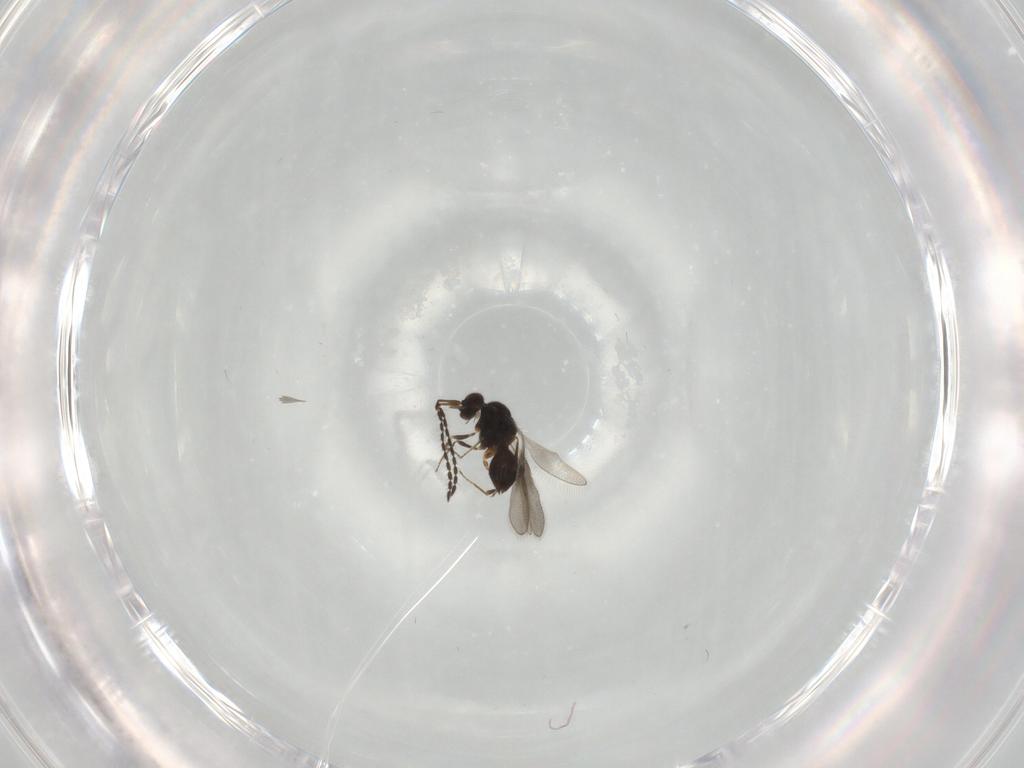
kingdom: Animalia
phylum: Arthropoda
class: Insecta
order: Hymenoptera
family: Ceraphronidae
